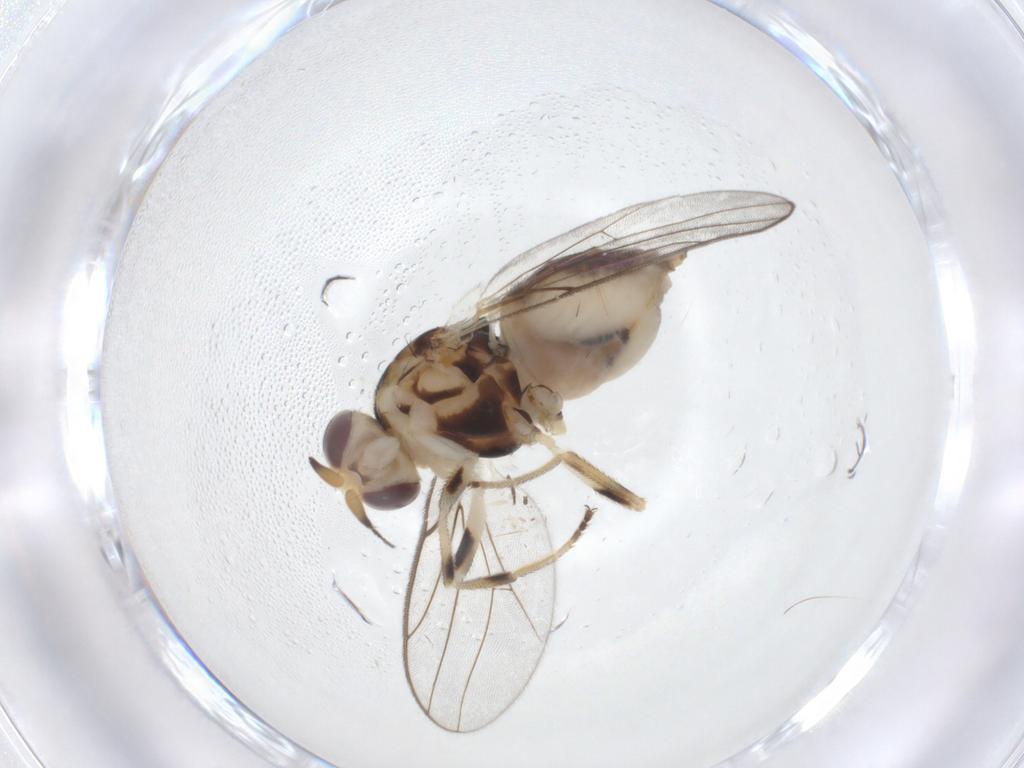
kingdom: Animalia
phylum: Arthropoda
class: Insecta
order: Diptera
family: Chloropidae
